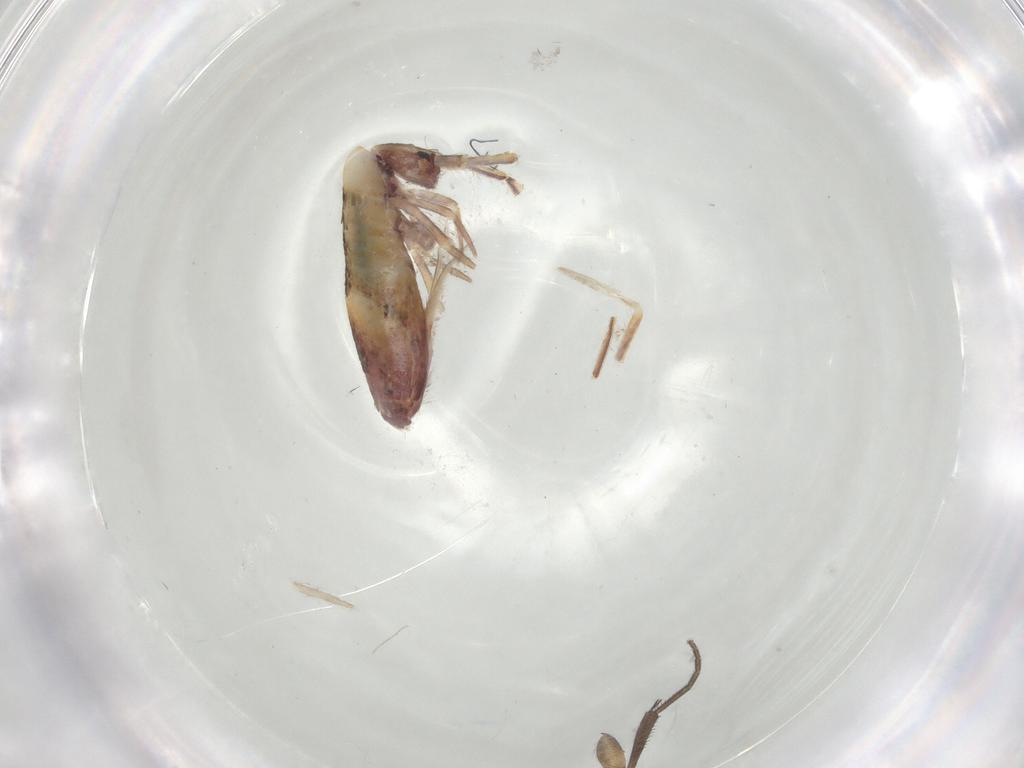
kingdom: Animalia
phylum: Arthropoda
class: Collembola
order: Entomobryomorpha
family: Entomobryidae
